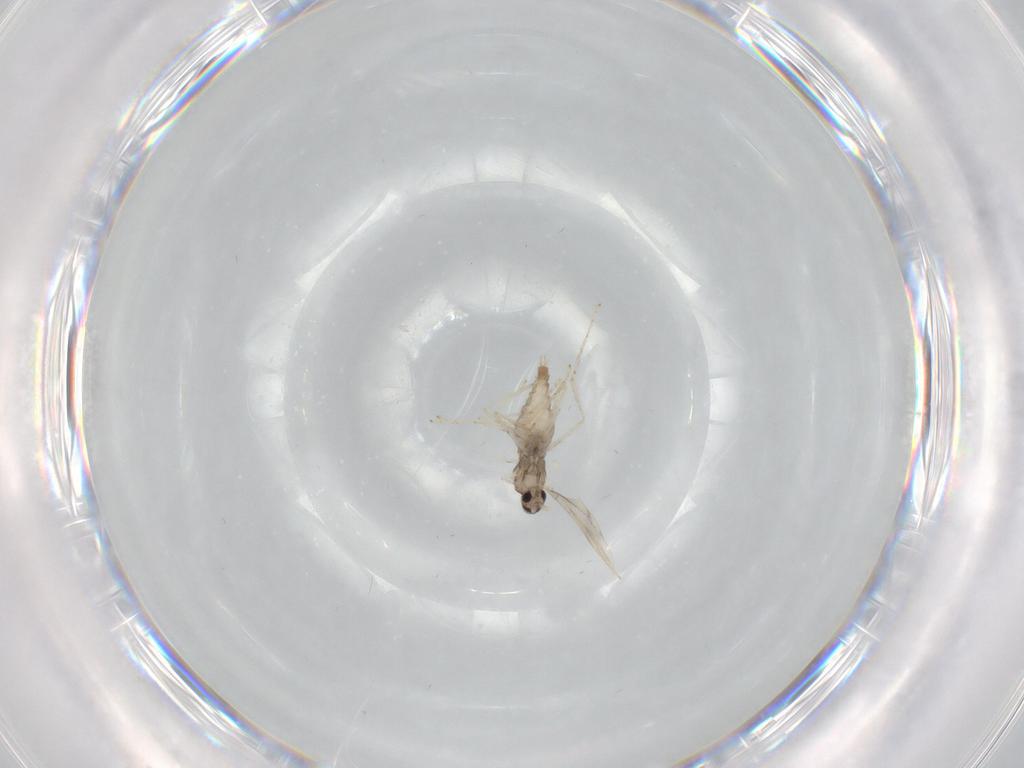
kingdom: Animalia
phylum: Arthropoda
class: Insecta
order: Diptera
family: Cecidomyiidae
